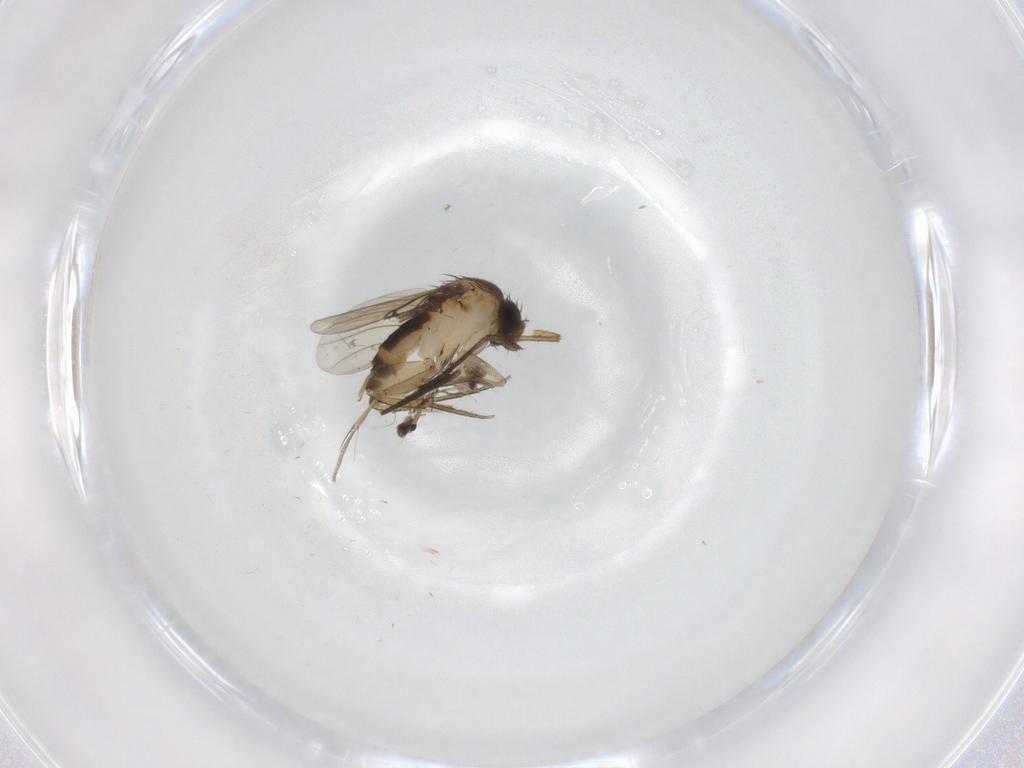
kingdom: Animalia
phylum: Arthropoda
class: Insecta
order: Diptera
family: Phoridae
